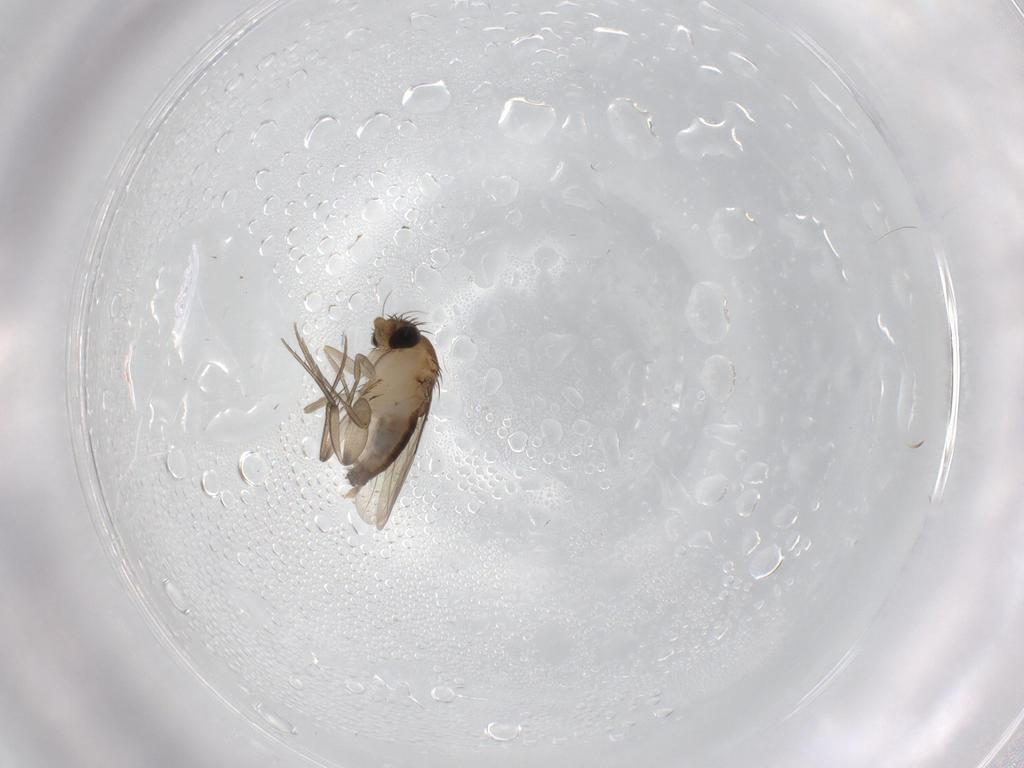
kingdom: Animalia
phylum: Arthropoda
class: Insecta
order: Diptera
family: Phoridae
